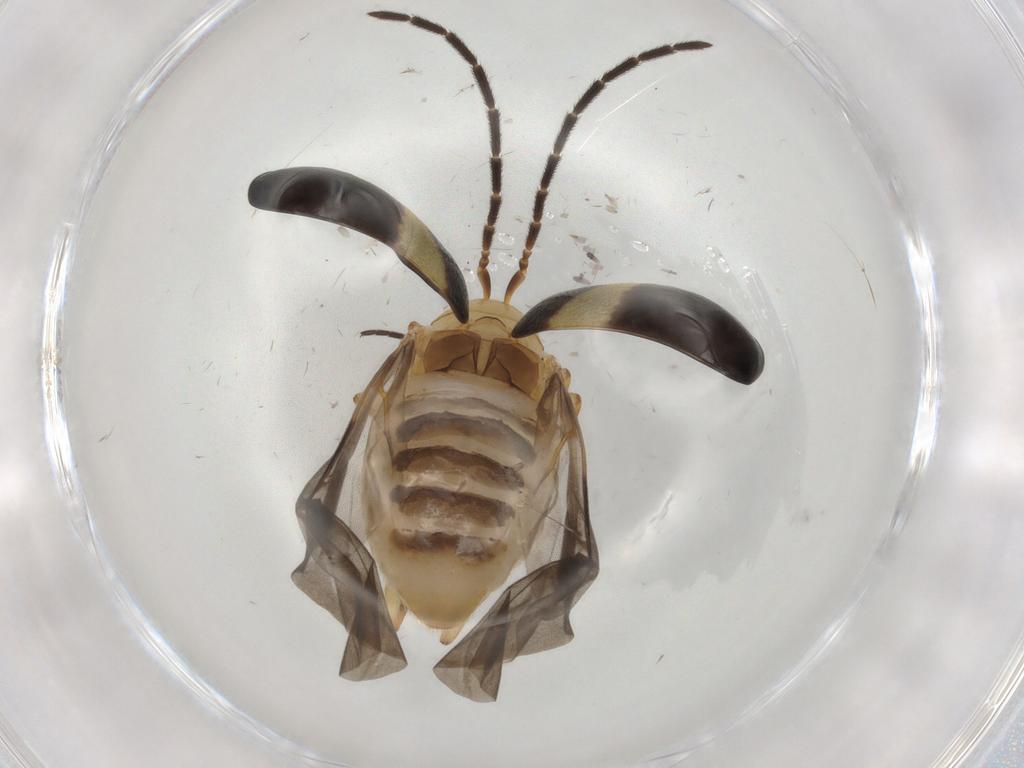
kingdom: Animalia
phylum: Arthropoda
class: Insecta
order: Coleoptera
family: Chrysomelidae
